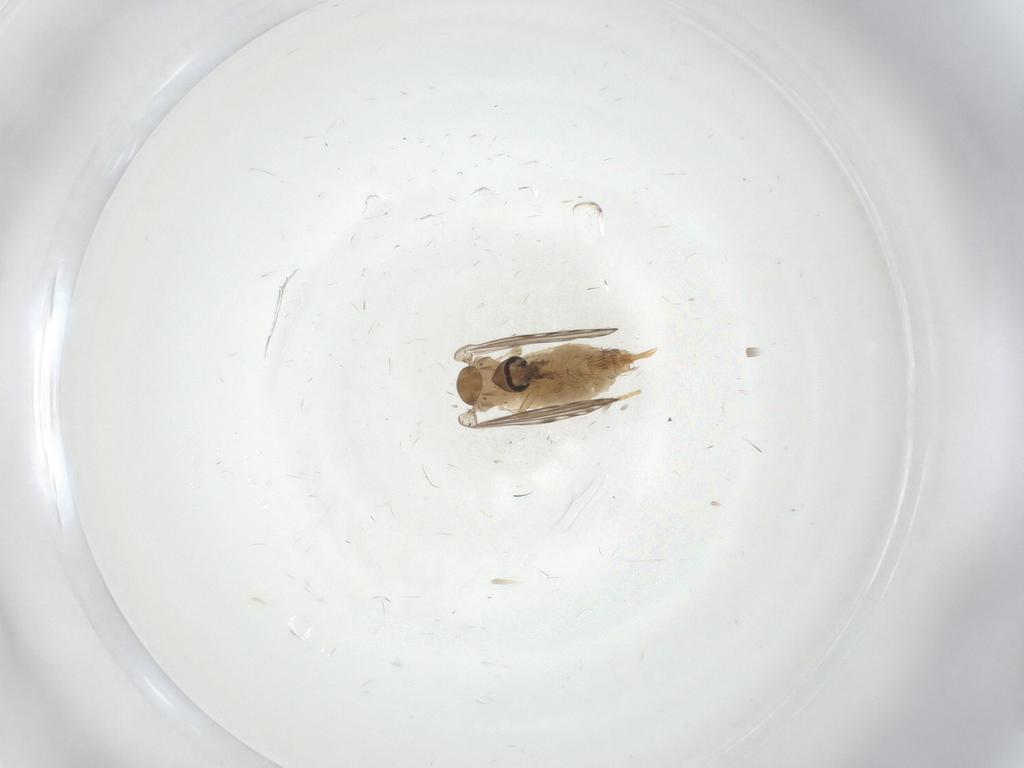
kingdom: Animalia
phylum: Arthropoda
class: Insecta
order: Diptera
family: Psychodidae
